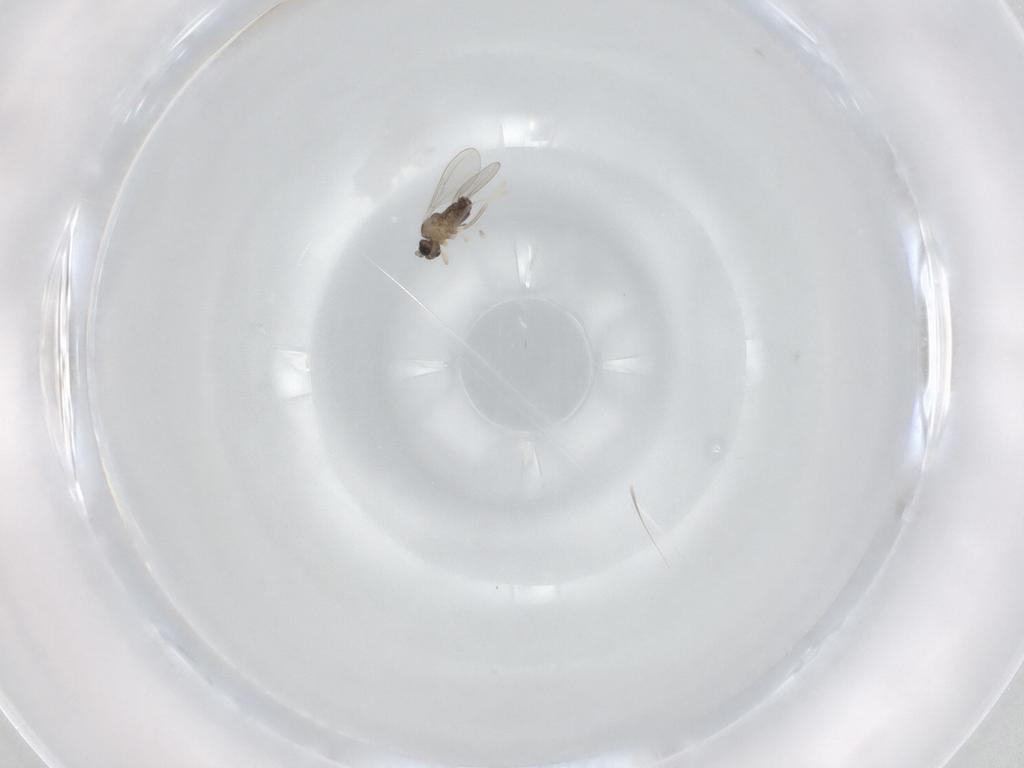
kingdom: Animalia
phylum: Arthropoda
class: Insecta
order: Diptera
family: Cecidomyiidae
